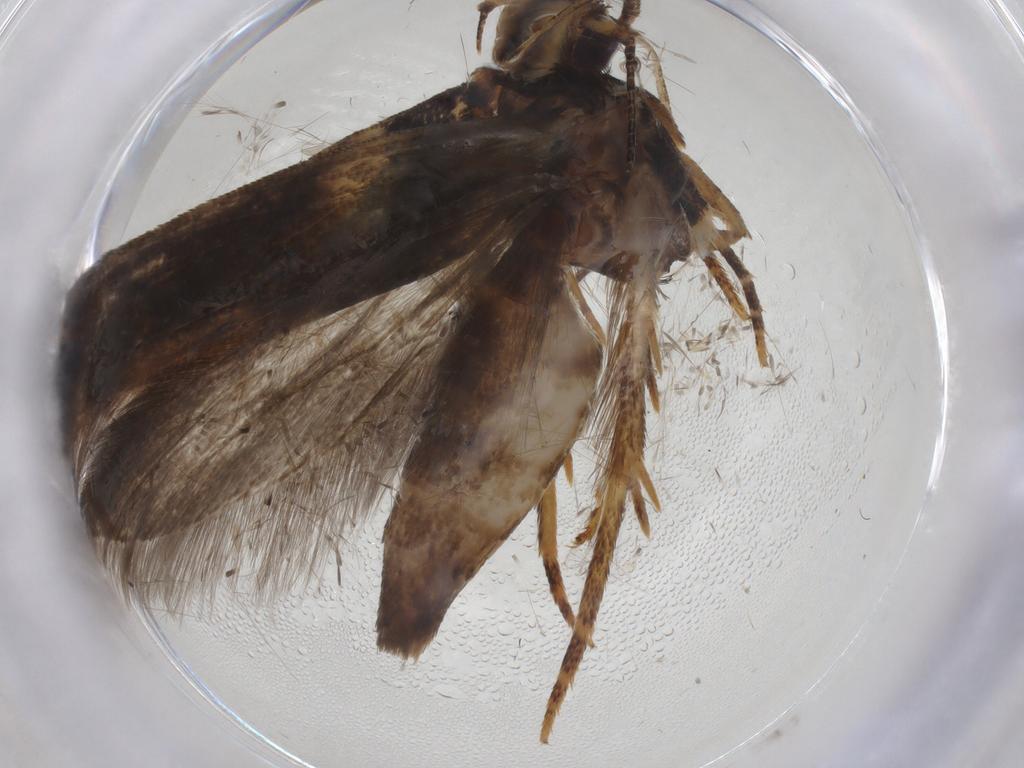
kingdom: Animalia
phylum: Arthropoda
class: Insecta
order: Lepidoptera
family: Gelechiidae
